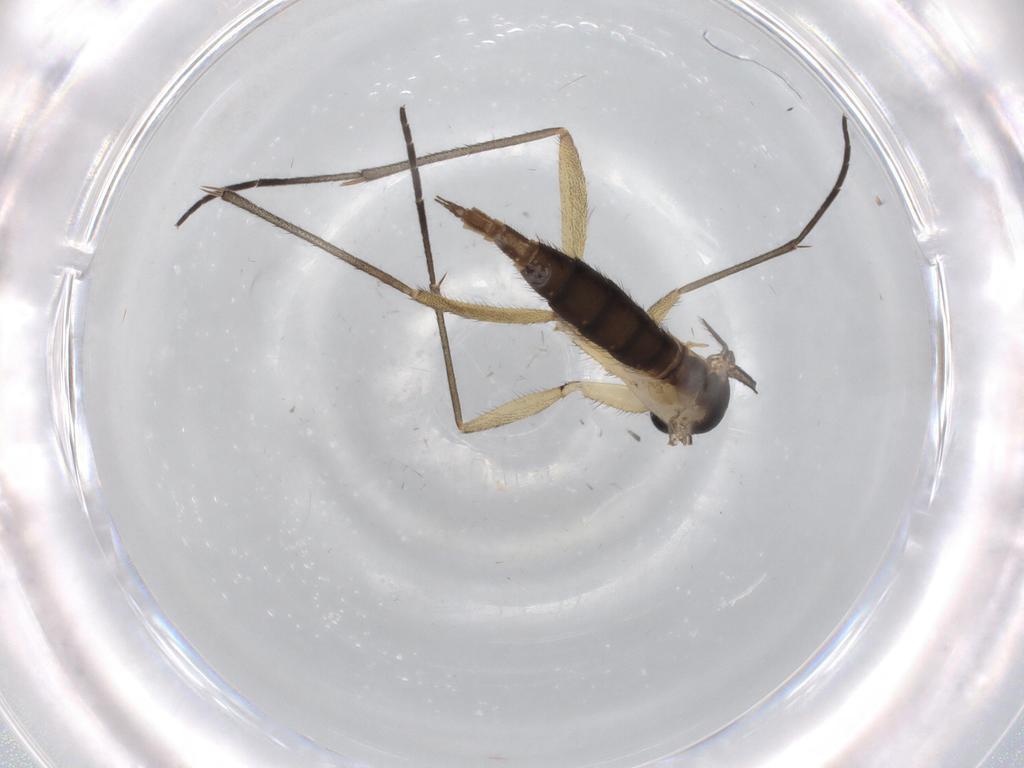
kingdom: Animalia
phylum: Arthropoda
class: Insecta
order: Diptera
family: Sciaridae
